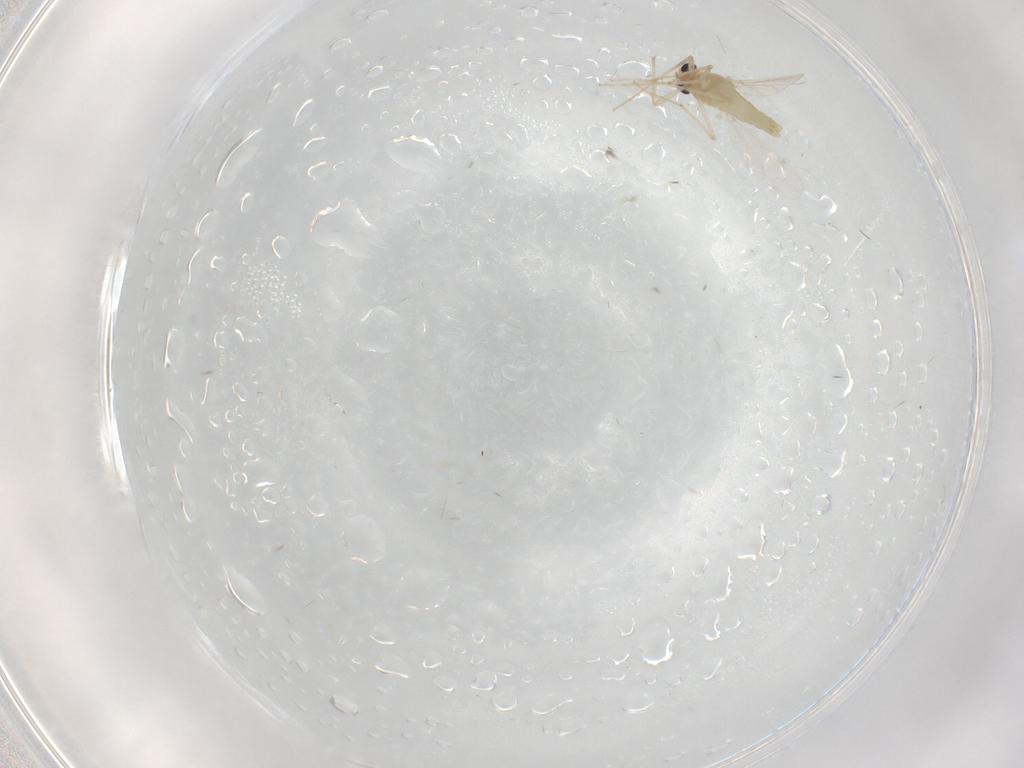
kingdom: Animalia
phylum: Arthropoda
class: Insecta
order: Diptera
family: Chironomidae
